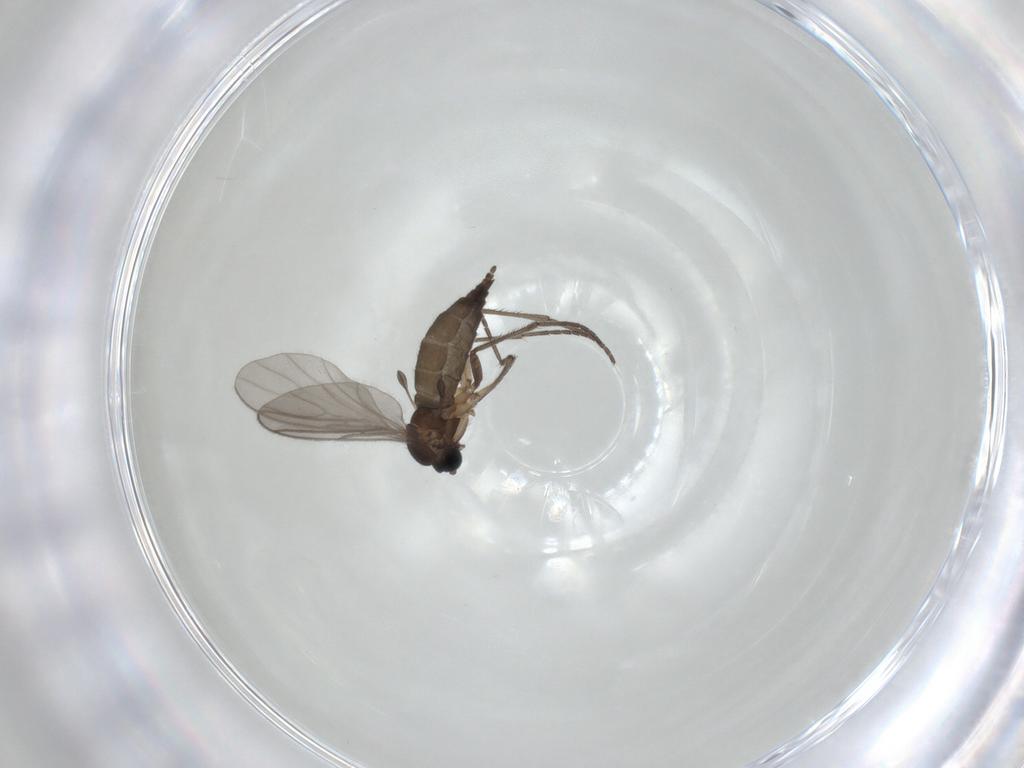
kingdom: Animalia
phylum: Arthropoda
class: Insecta
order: Diptera
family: Sciaridae
